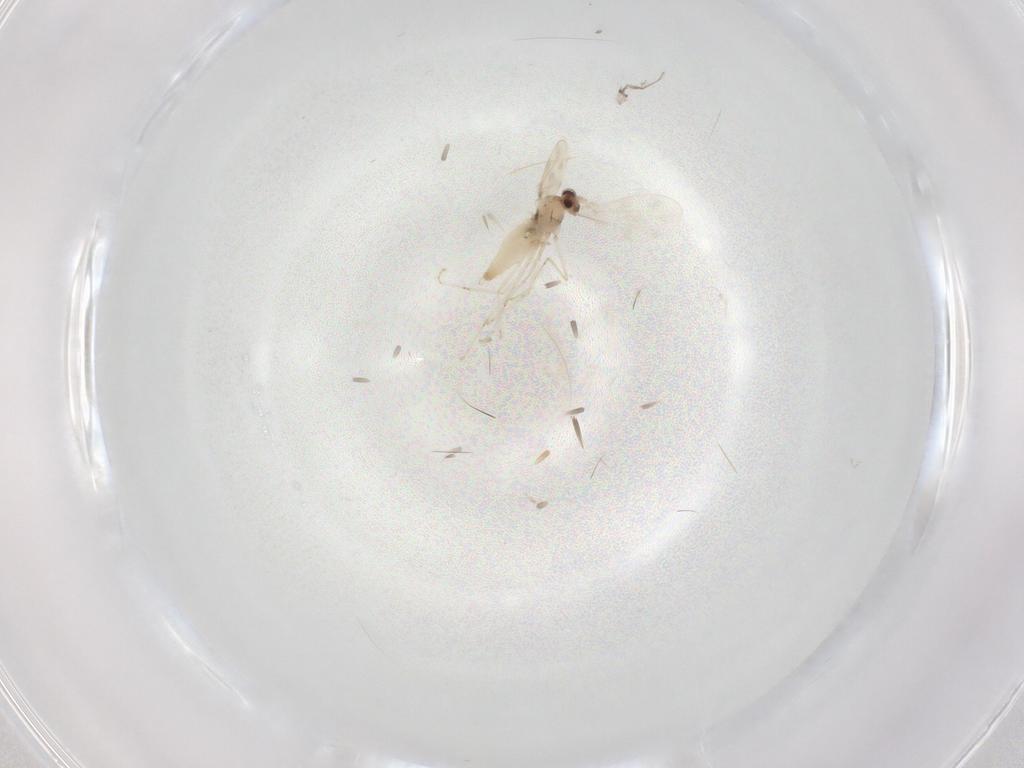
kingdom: Animalia
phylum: Arthropoda
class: Insecta
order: Diptera
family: Cecidomyiidae
